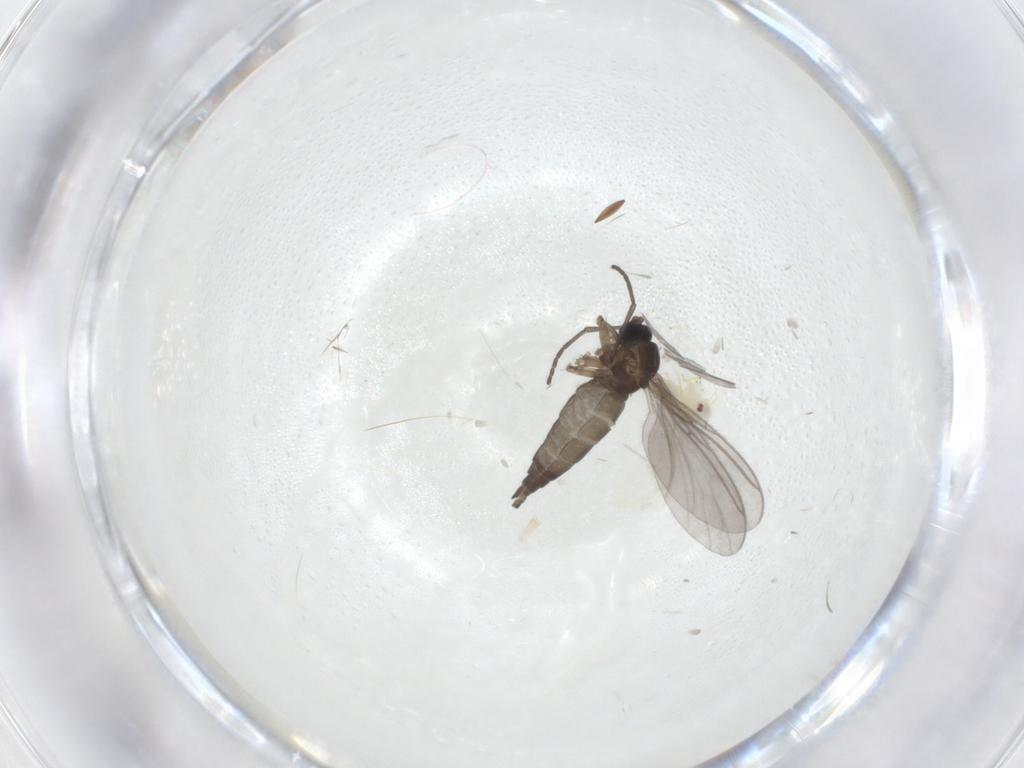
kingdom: Animalia
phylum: Arthropoda
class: Insecta
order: Diptera
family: Sciaridae
